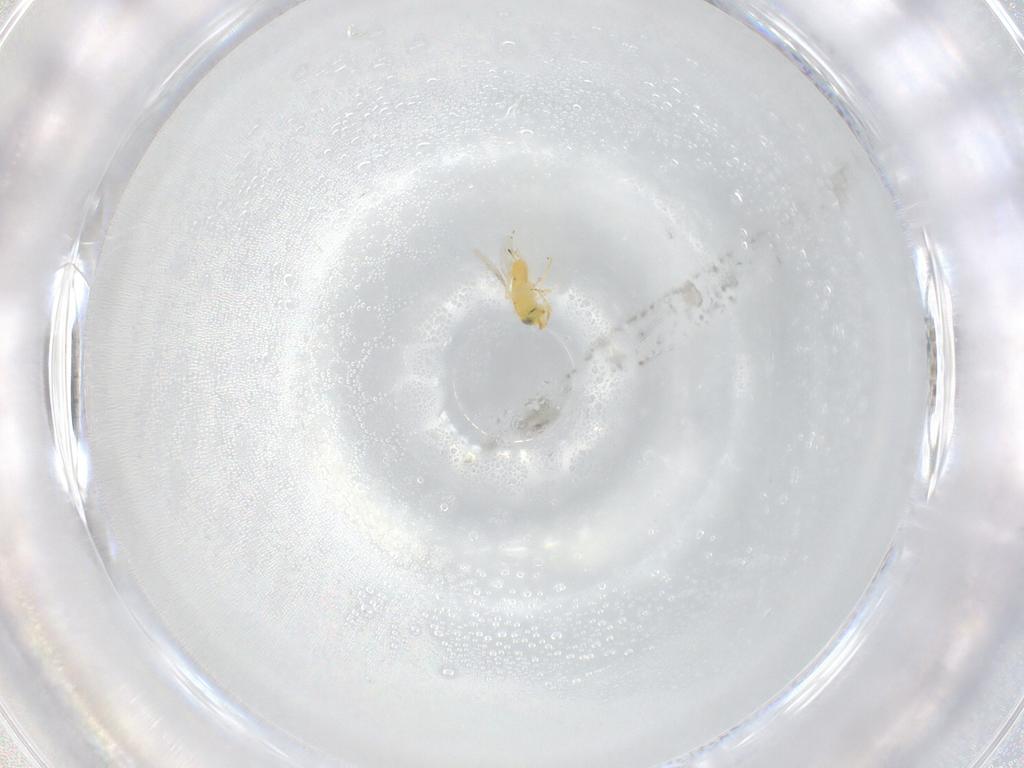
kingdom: Animalia
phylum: Arthropoda
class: Insecta
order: Hymenoptera
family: Encyrtidae
